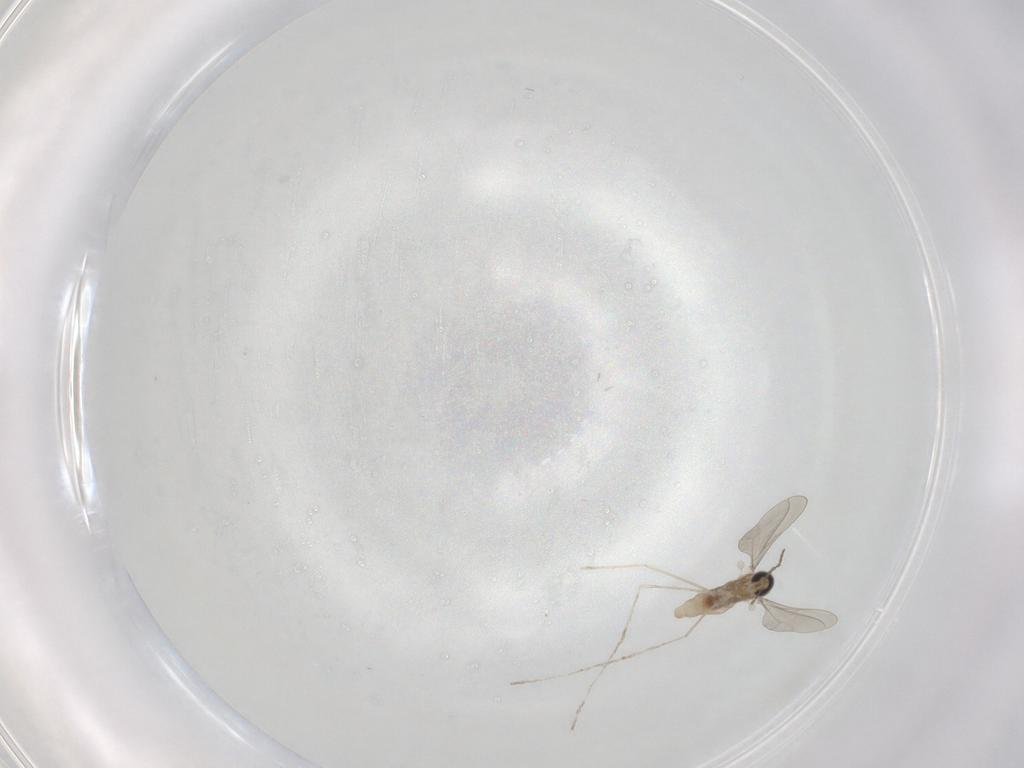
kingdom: Animalia
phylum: Arthropoda
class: Insecta
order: Diptera
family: Cecidomyiidae
